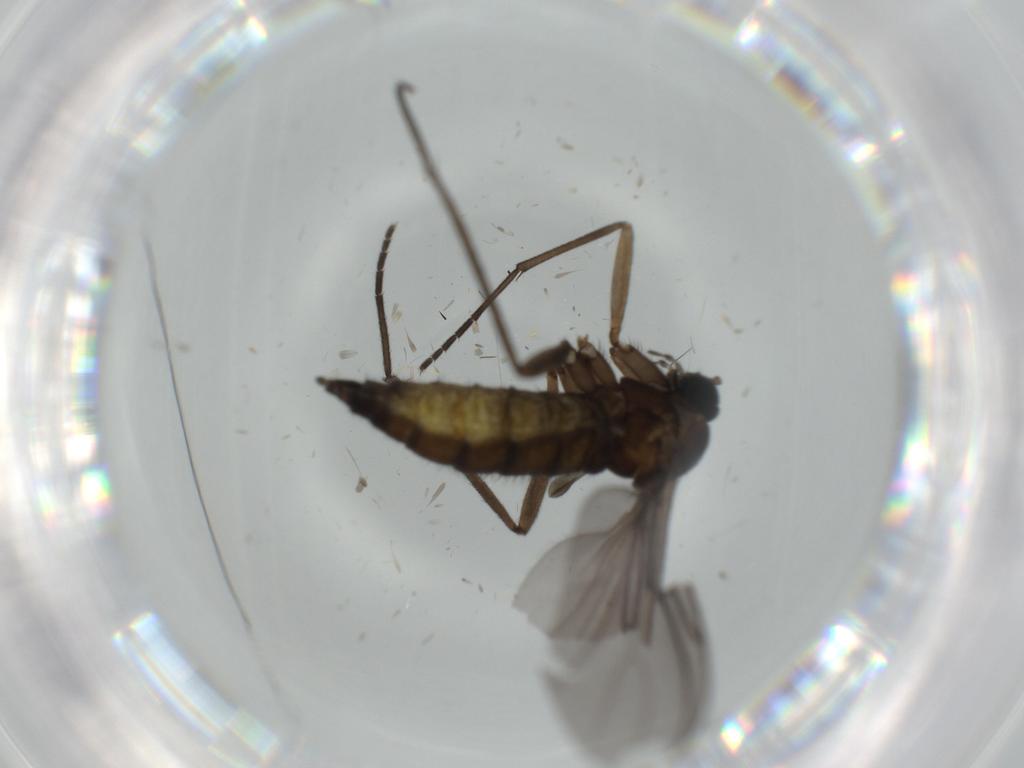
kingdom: Animalia
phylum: Arthropoda
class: Insecta
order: Diptera
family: Sciaridae
